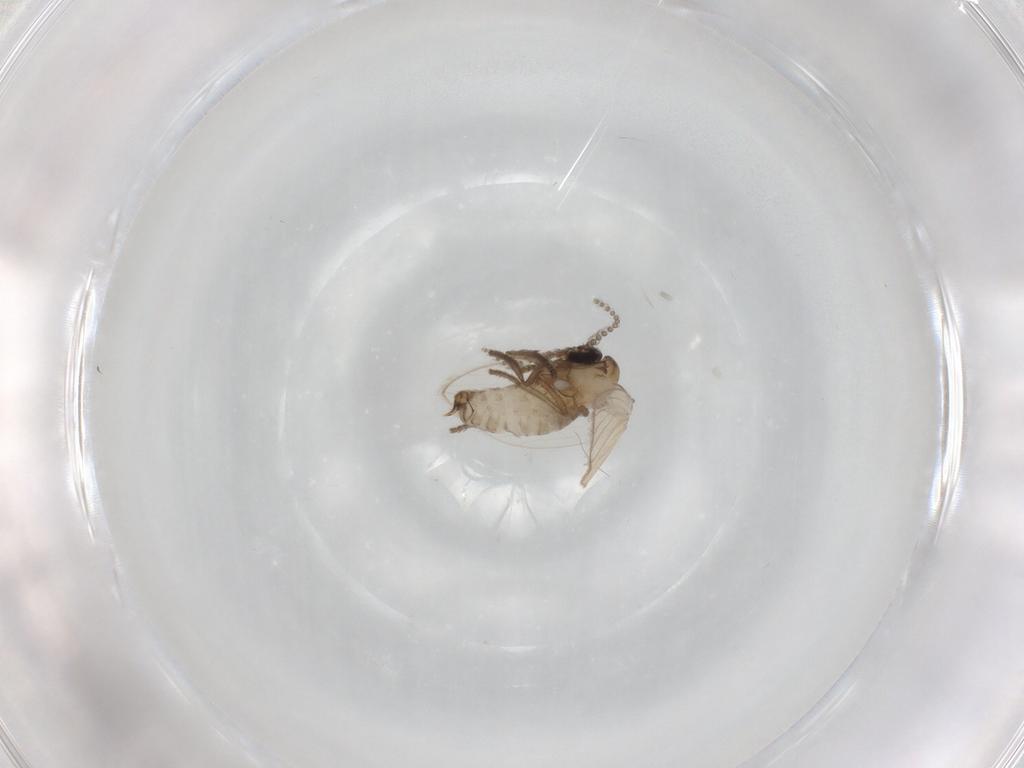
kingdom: Animalia
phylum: Arthropoda
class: Insecta
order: Diptera
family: Psychodidae
